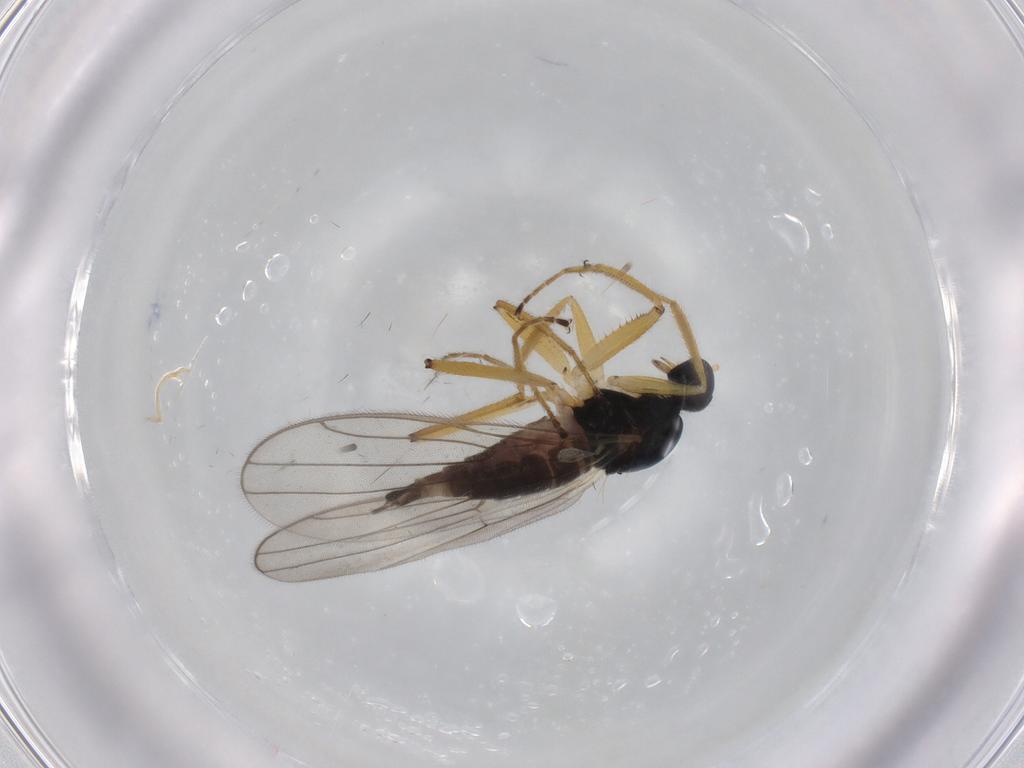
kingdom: Animalia
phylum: Arthropoda
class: Insecta
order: Diptera
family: Hybotidae
